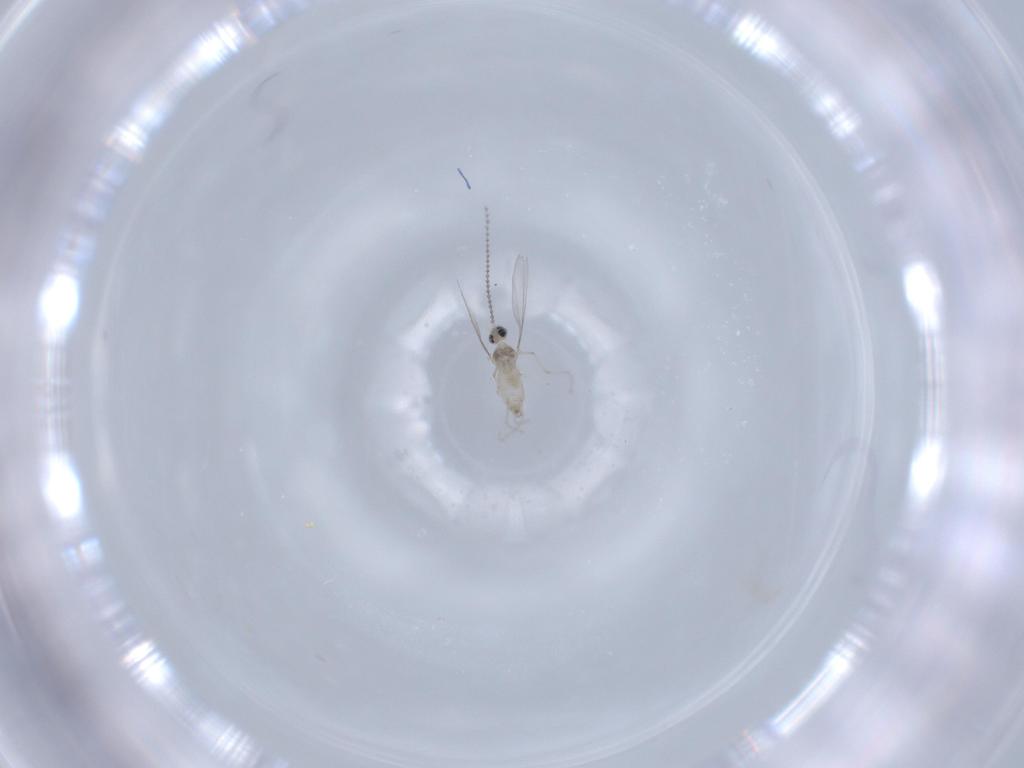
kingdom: Animalia
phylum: Arthropoda
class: Insecta
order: Diptera
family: Cecidomyiidae
